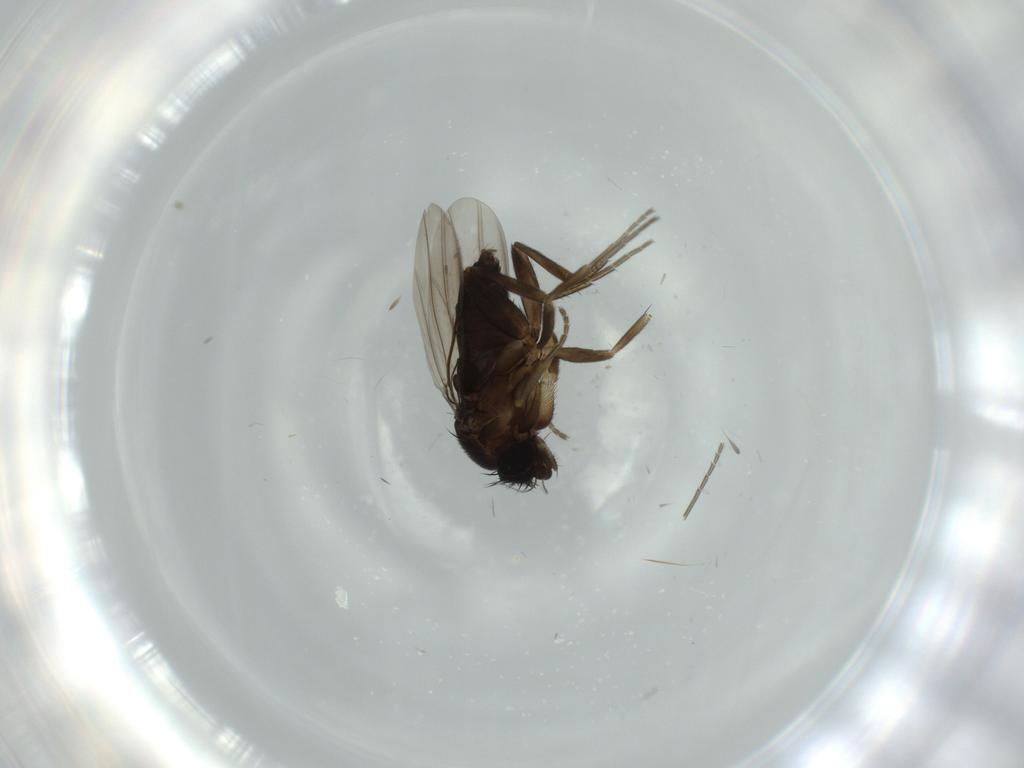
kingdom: Animalia
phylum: Arthropoda
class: Insecta
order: Diptera
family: Phoridae
